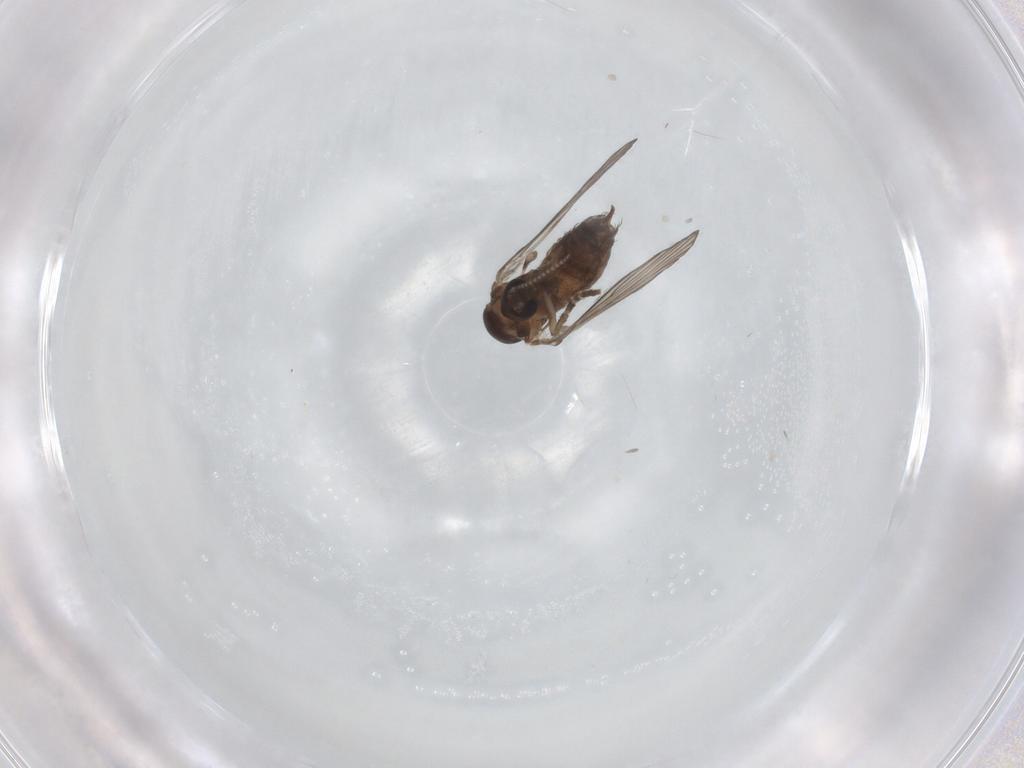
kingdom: Animalia
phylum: Arthropoda
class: Insecta
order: Diptera
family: Psychodidae
